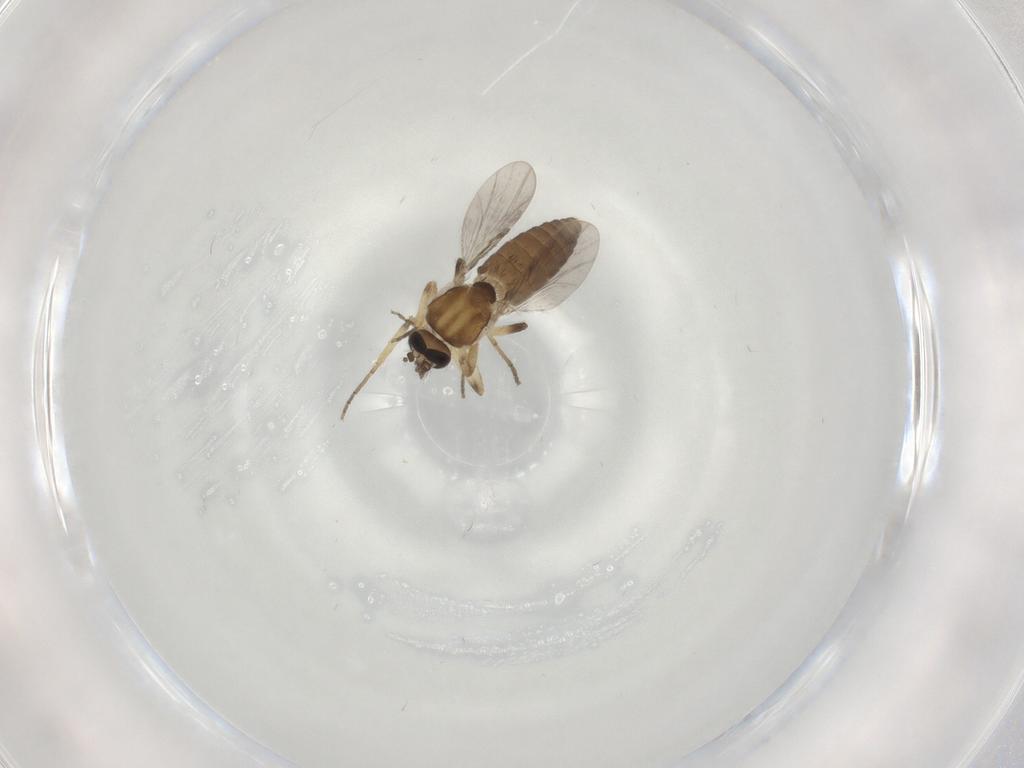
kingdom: Animalia
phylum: Arthropoda
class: Insecta
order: Diptera
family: Ceratopogonidae
